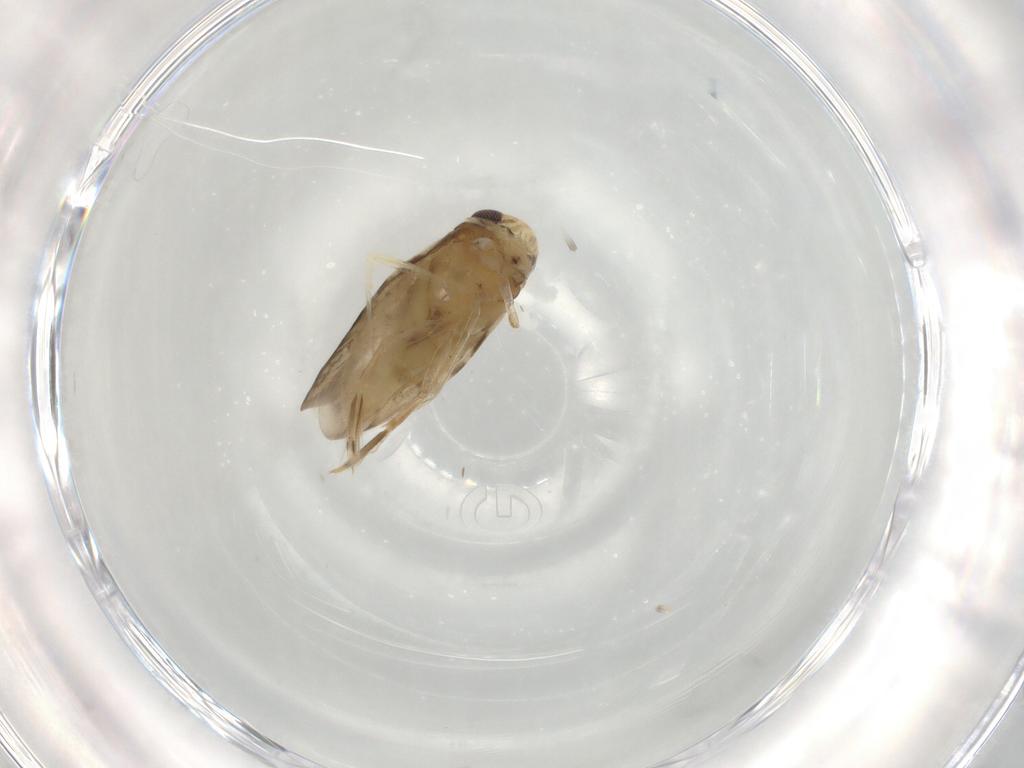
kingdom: Animalia
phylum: Arthropoda
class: Insecta
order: Hemiptera
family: Corixidae
